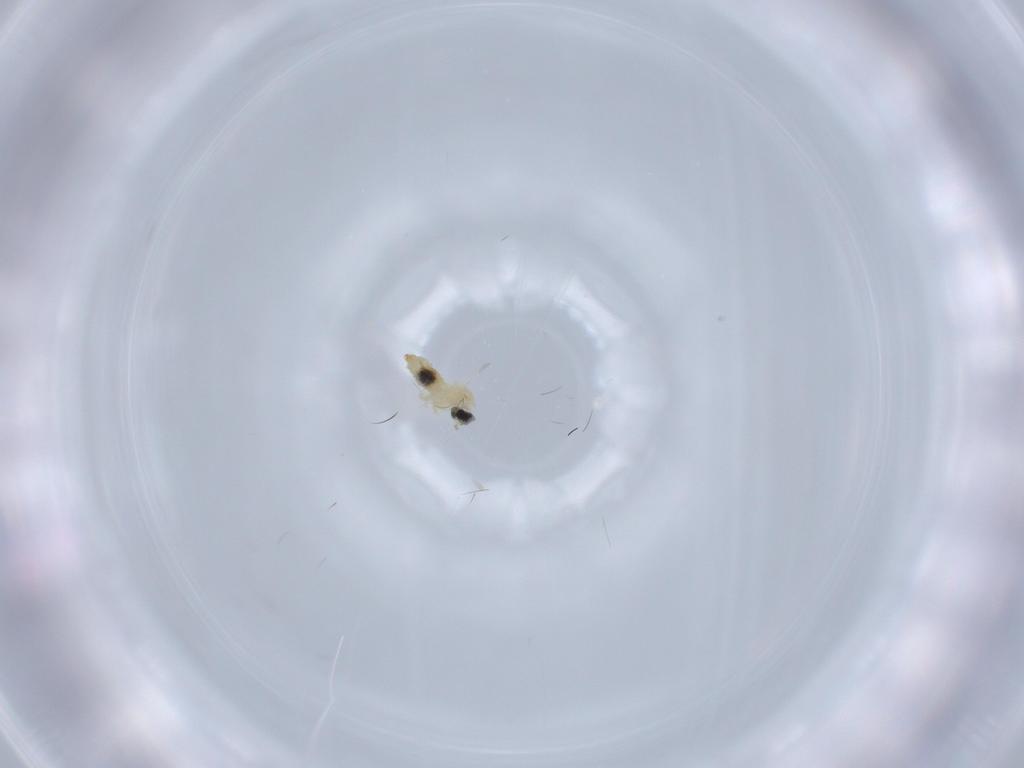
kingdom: Animalia
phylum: Arthropoda
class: Insecta
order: Diptera
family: Cecidomyiidae
